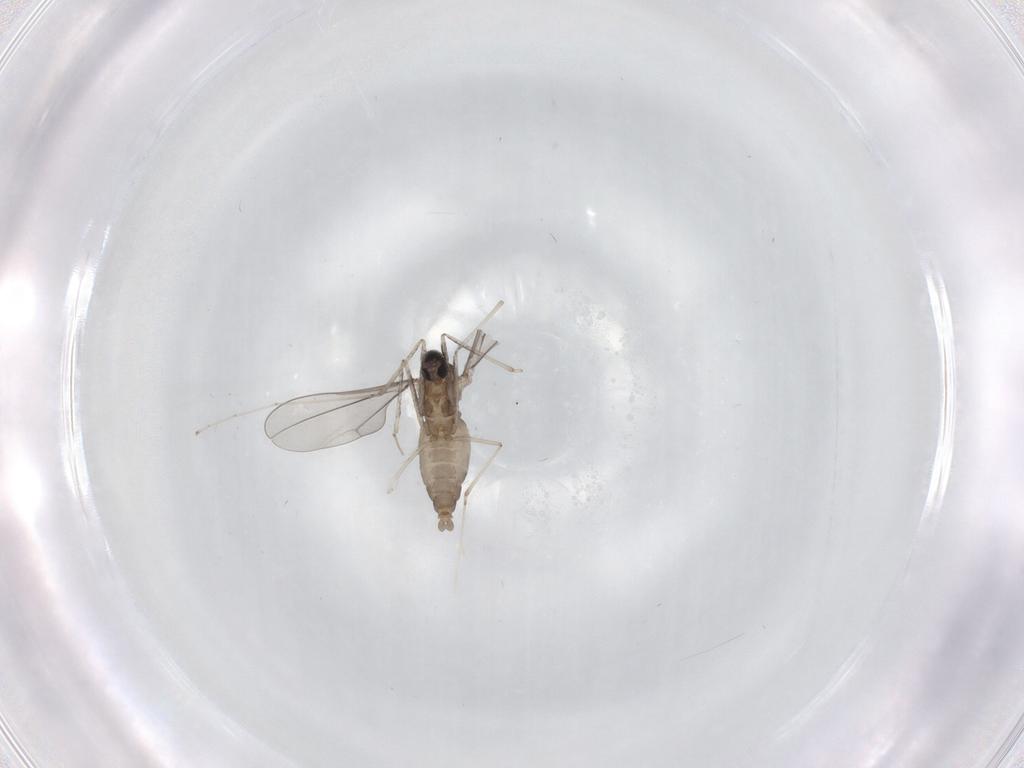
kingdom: Animalia
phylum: Arthropoda
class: Insecta
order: Diptera
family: Cecidomyiidae
